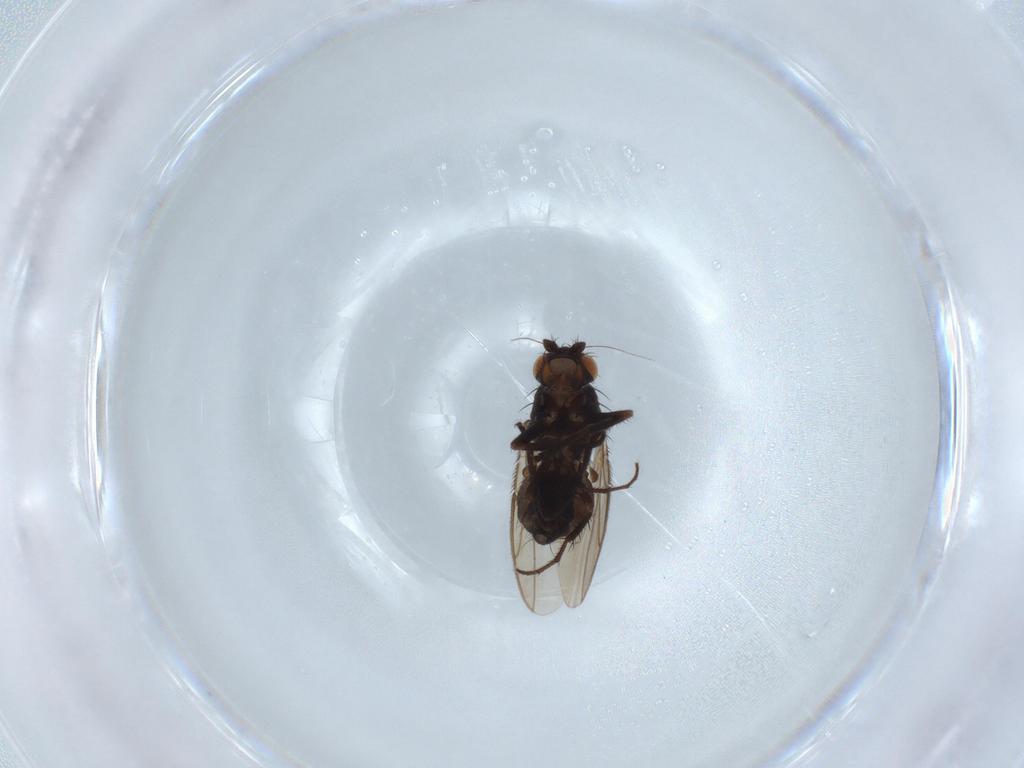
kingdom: Animalia
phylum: Arthropoda
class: Insecta
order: Diptera
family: Sphaeroceridae
